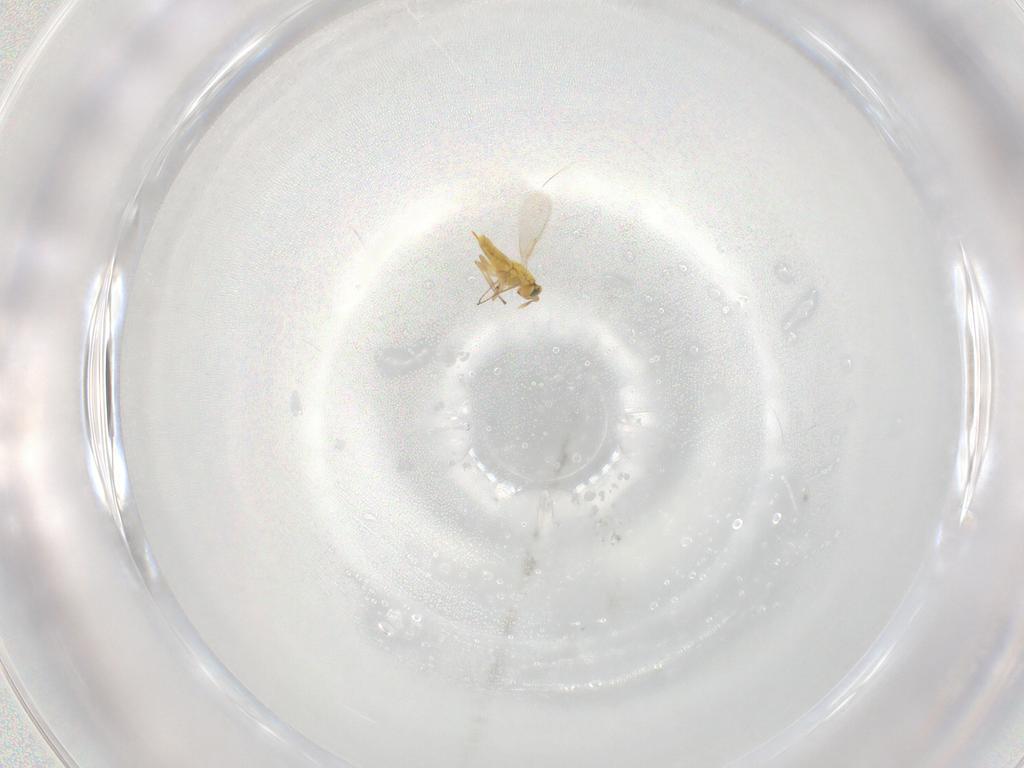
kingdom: Animalia
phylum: Arthropoda
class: Insecta
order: Hymenoptera
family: Aphelinidae
